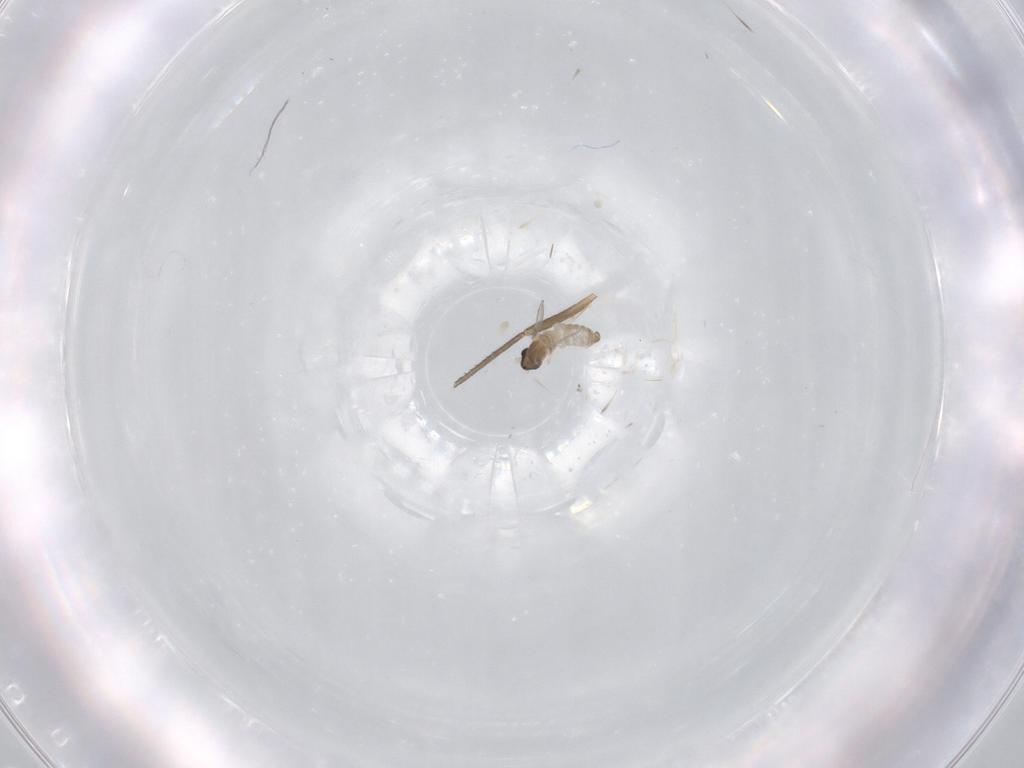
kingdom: Animalia
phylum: Arthropoda
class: Insecta
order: Diptera
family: Cecidomyiidae
